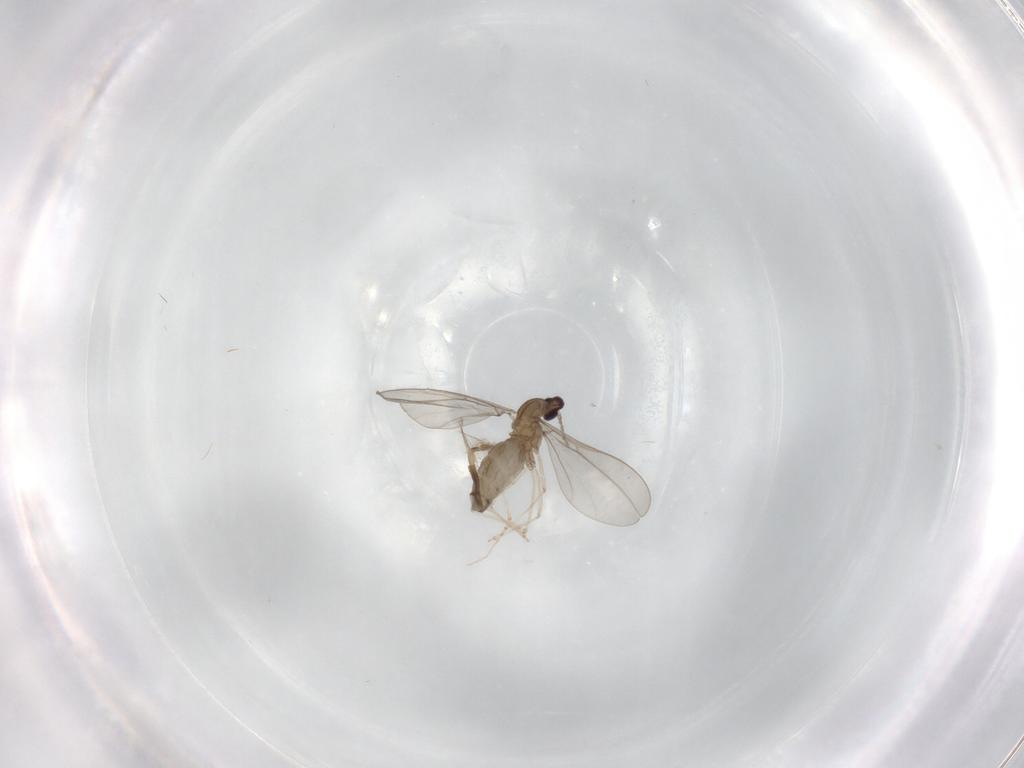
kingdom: Animalia
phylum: Arthropoda
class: Insecta
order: Diptera
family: Cecidomyiidae
